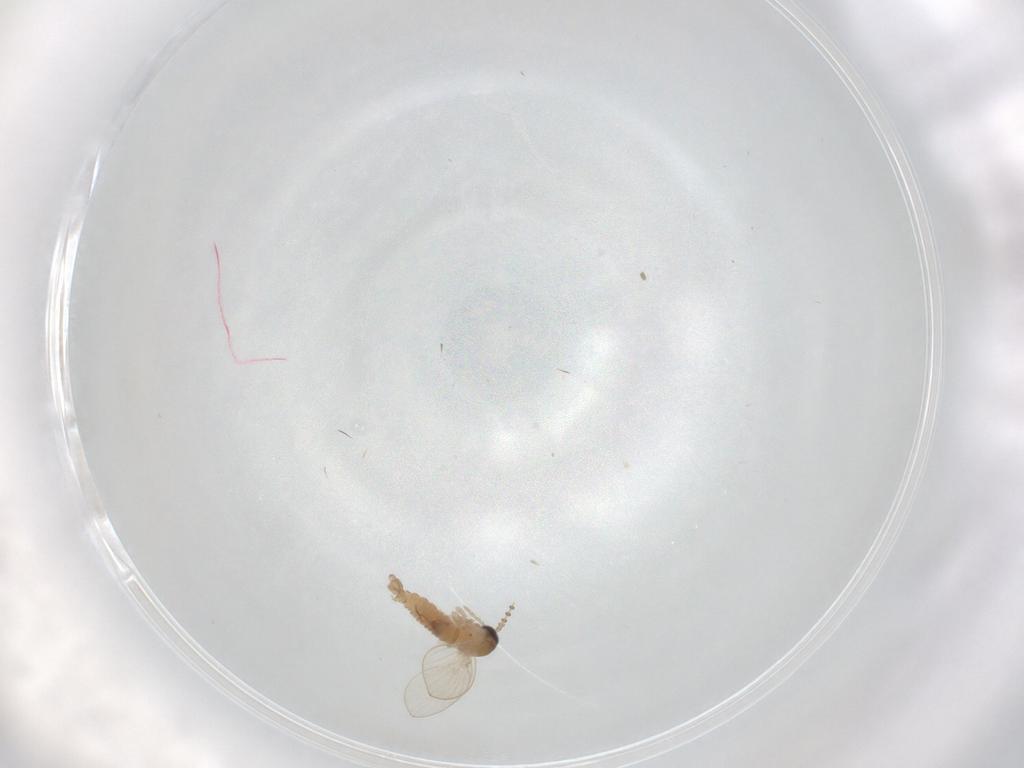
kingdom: Animalia
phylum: Arthropoda
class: Insecta
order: Diptera
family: Psychodidae
